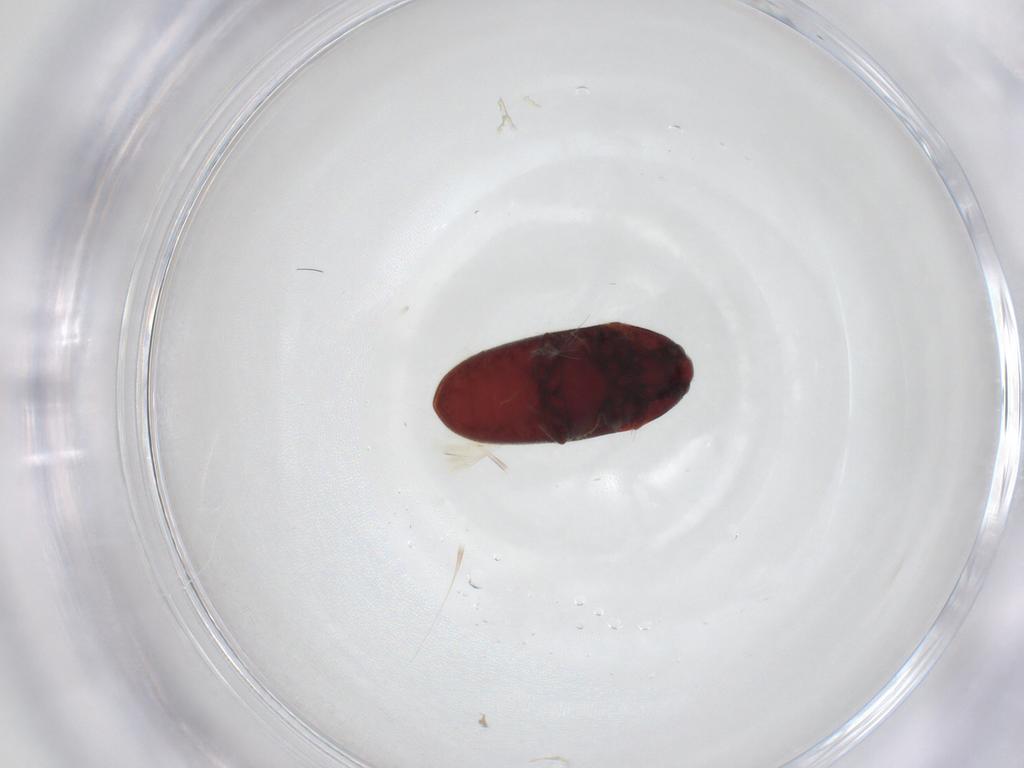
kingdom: Animalia
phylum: Arthropoda
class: Insecta
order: Coleoptera
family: Throscidae
